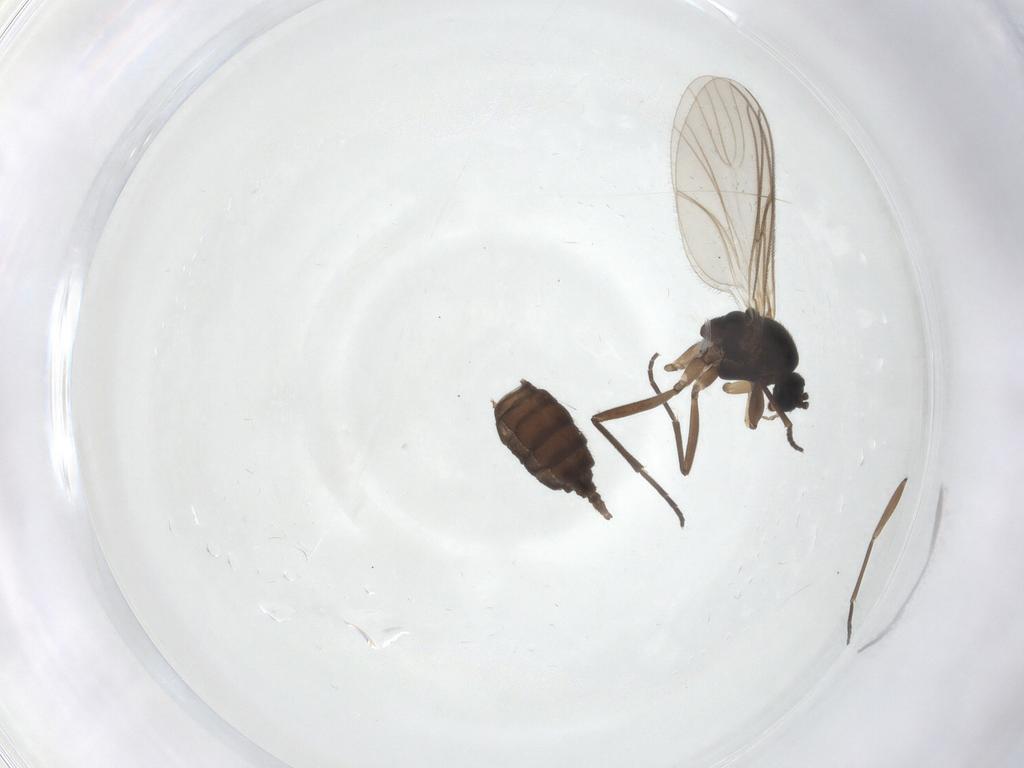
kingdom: Animalia
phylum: Arthropoda
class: Insecta
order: Diptera
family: Sciaridae
